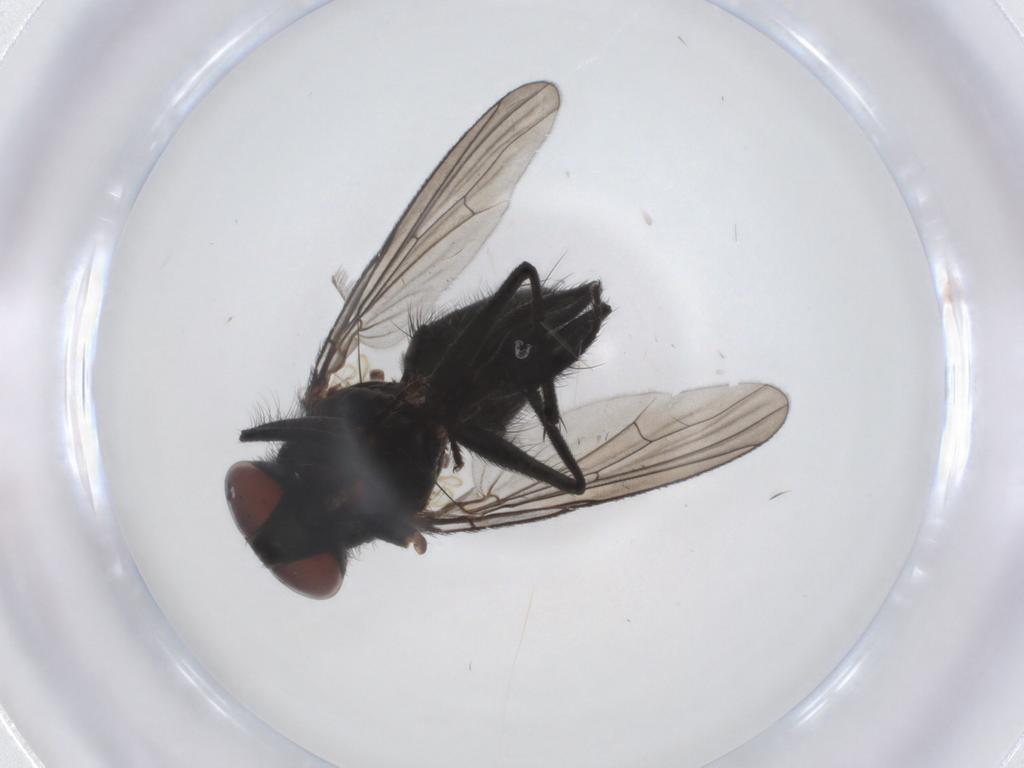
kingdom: Animalia
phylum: Arthropoda
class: Insecta
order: Diptera
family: Muscidae
